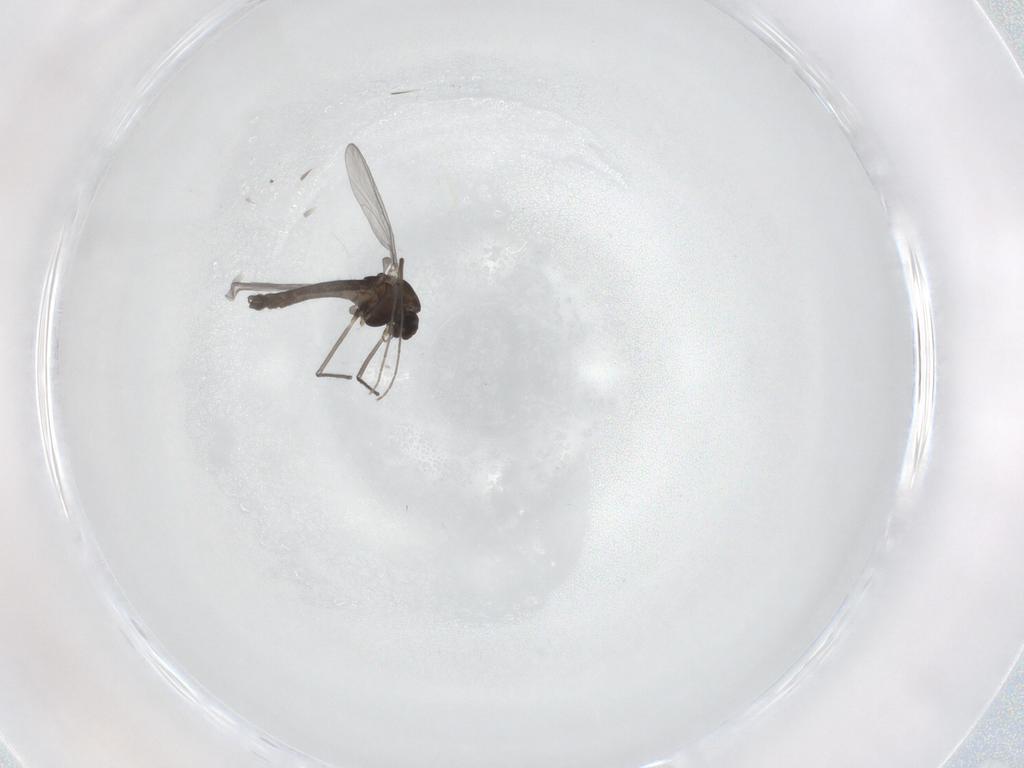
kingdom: Animalia
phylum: Arthropoda
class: Insecta
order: Diptera
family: Chironomidae
